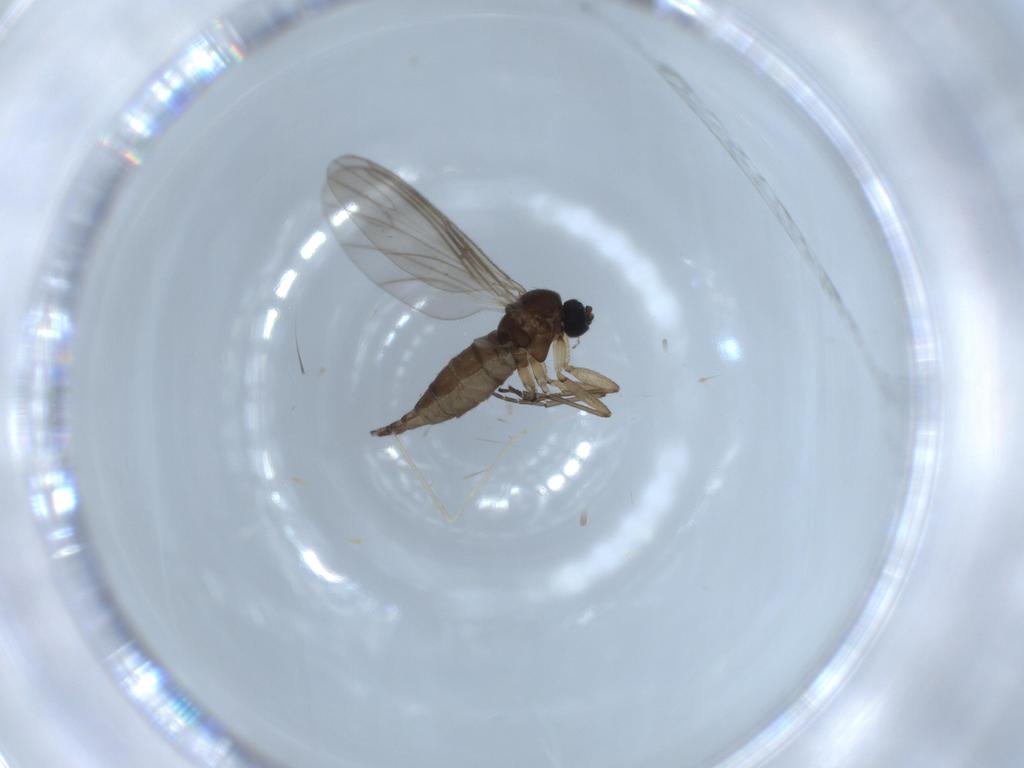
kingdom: Animalia
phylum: Arthropoda
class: Insecta
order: Diptera
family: Sciaridae
